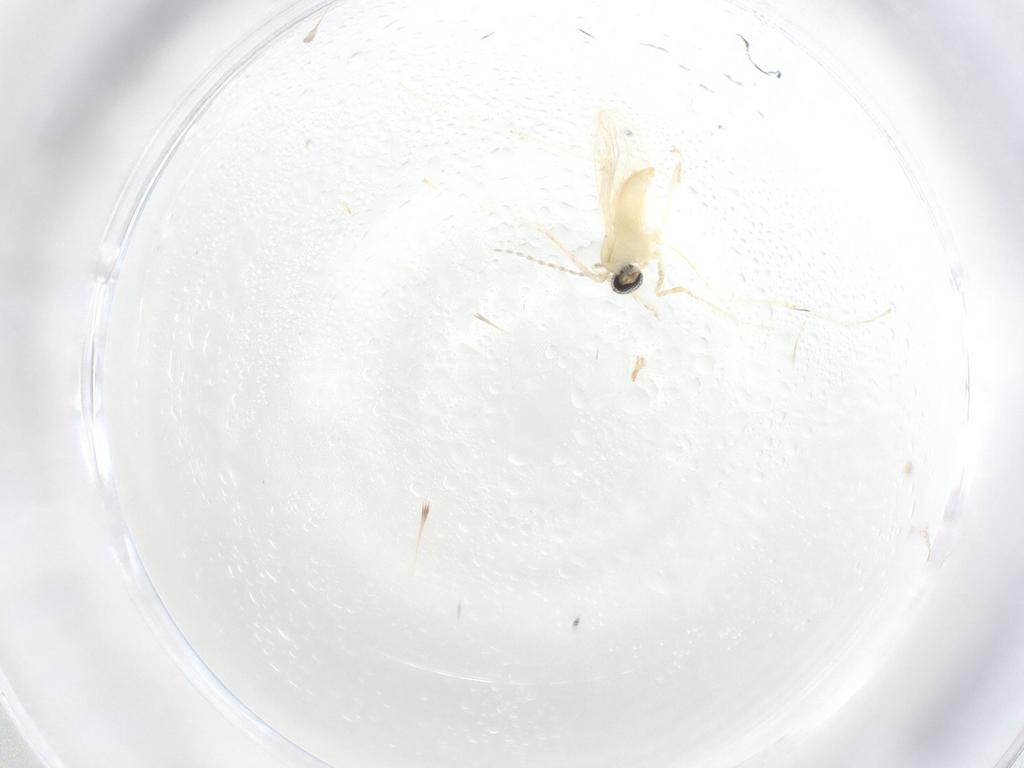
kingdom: Animalia
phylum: Arthropoda
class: Insecta
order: Diptera
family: Cecidomyiidae
